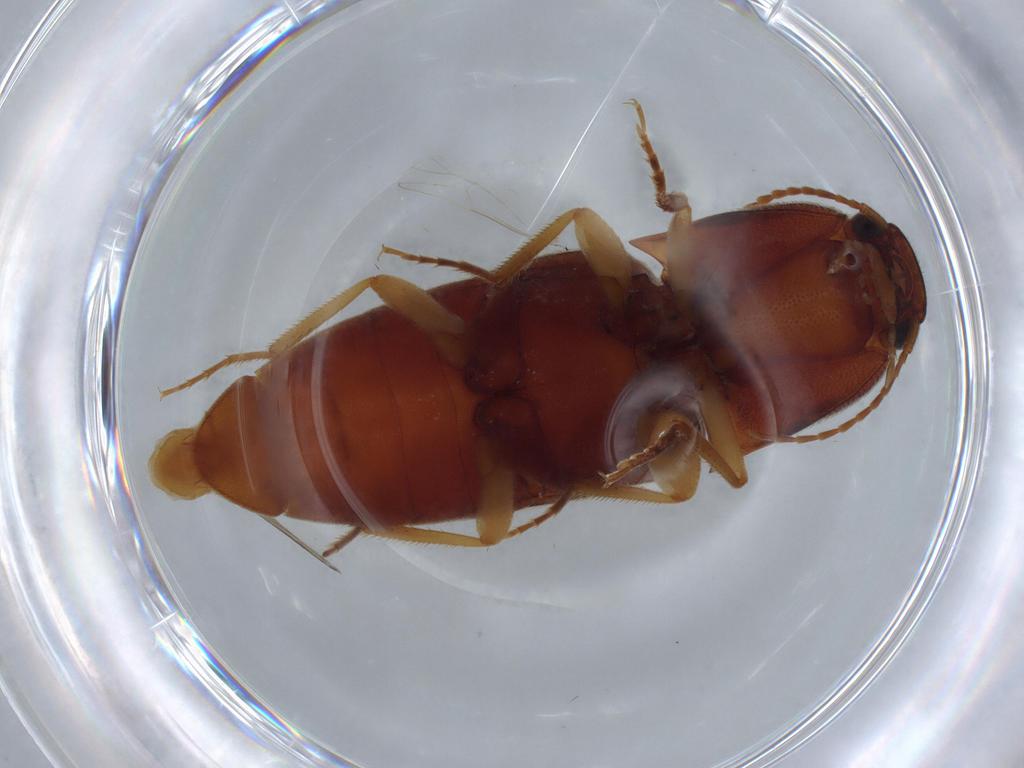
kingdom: Animalia
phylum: Arthropoda
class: Insecta
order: Coleoptera
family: Elateridae
